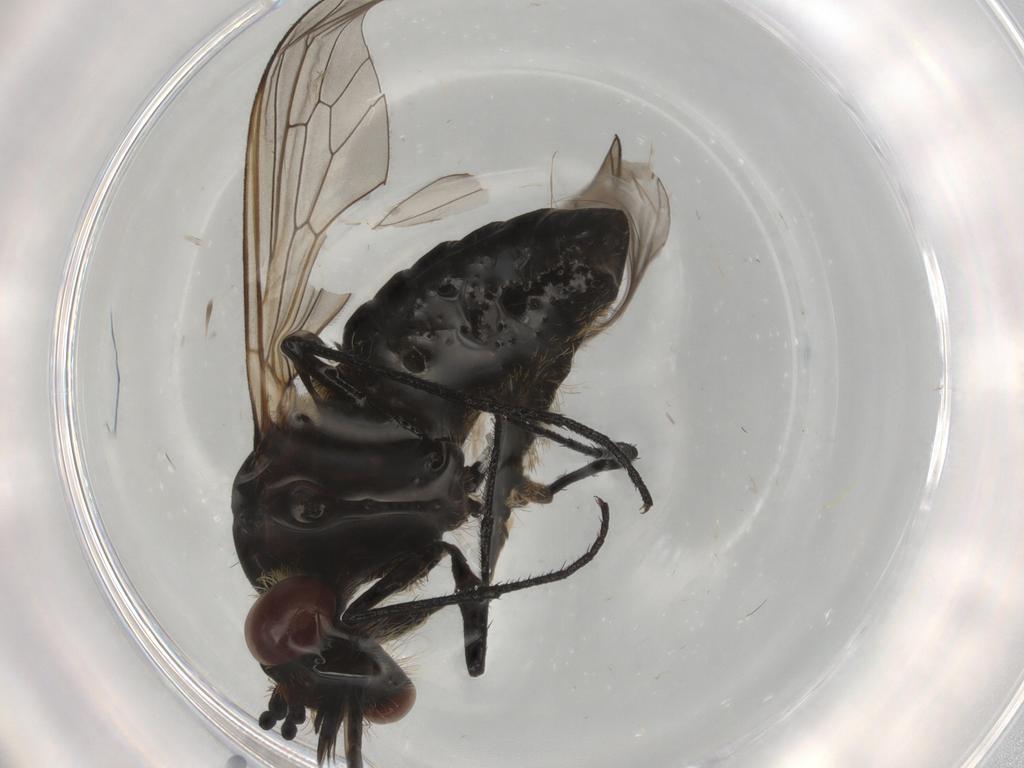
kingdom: Animalia
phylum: Arthropoda
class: Insecta
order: Diptera
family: Bombyliidae
